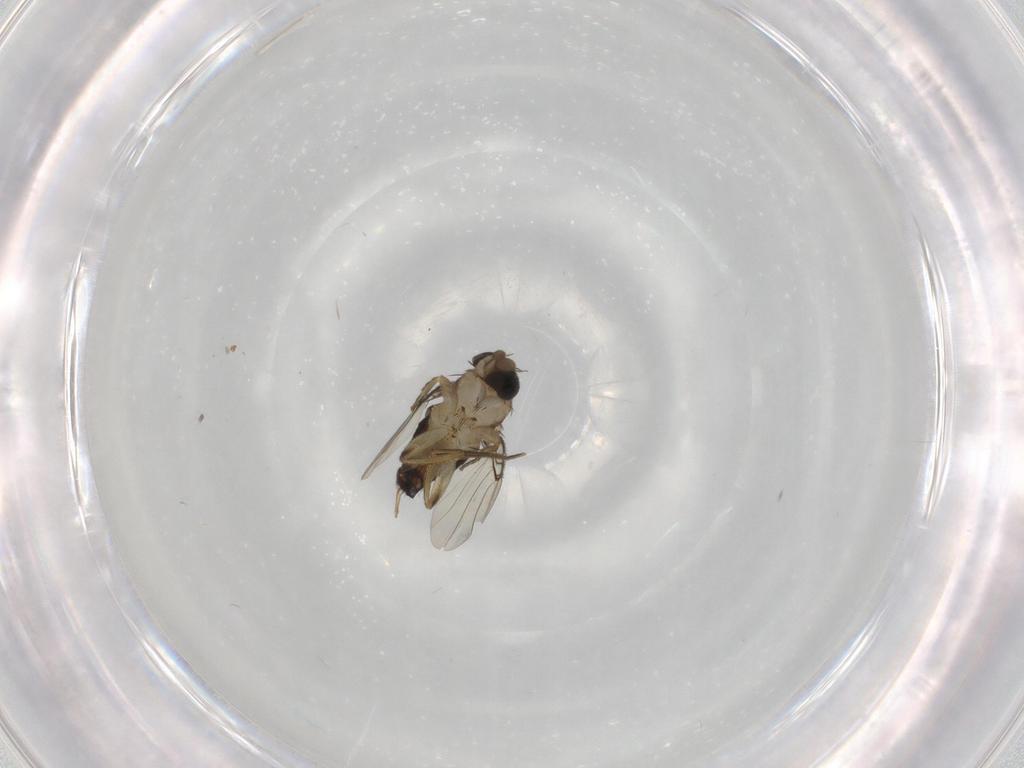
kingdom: Animalia
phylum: Arthropoda
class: Insecta
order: Diptera
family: Phoridae
